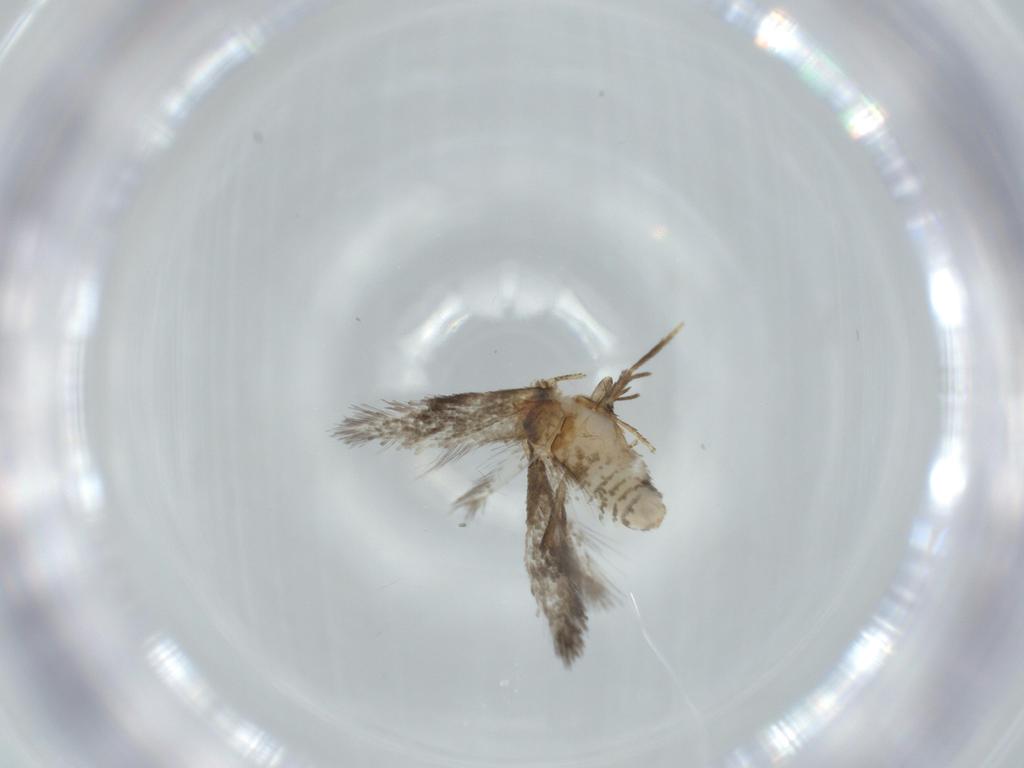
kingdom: Animalia
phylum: Arthropoda
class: Insecta
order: Lepidoptera
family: Nepticulidae
